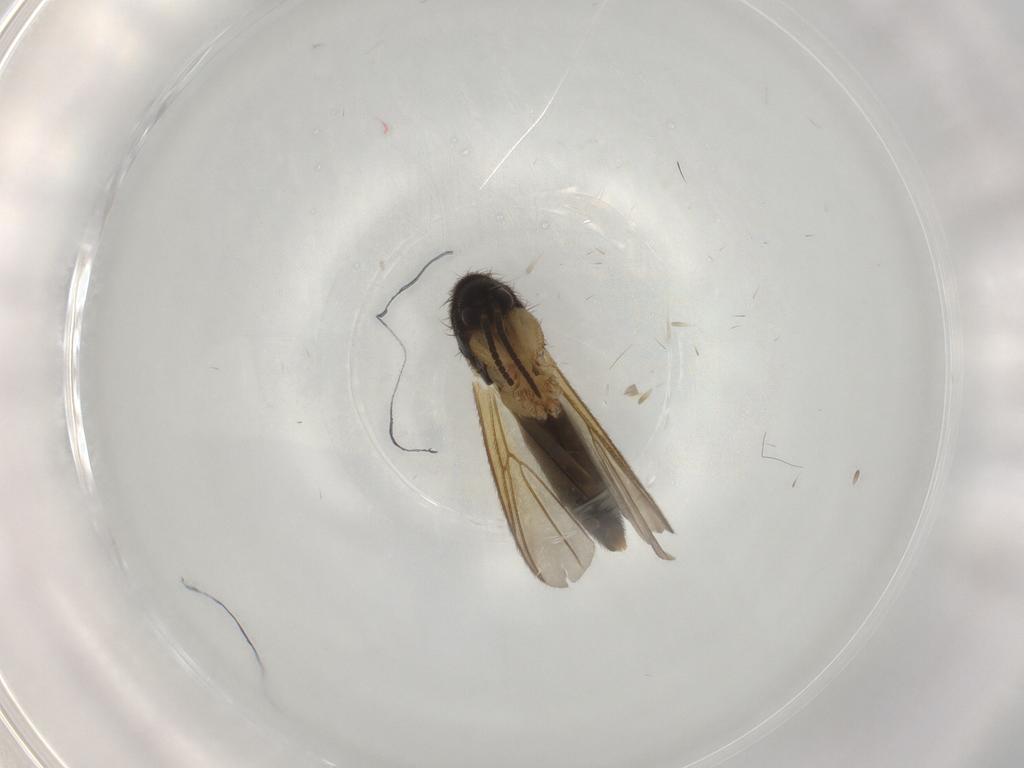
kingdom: Animalia
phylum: Arthropoda
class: Insecta
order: Diptera
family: Mycetophilidae
